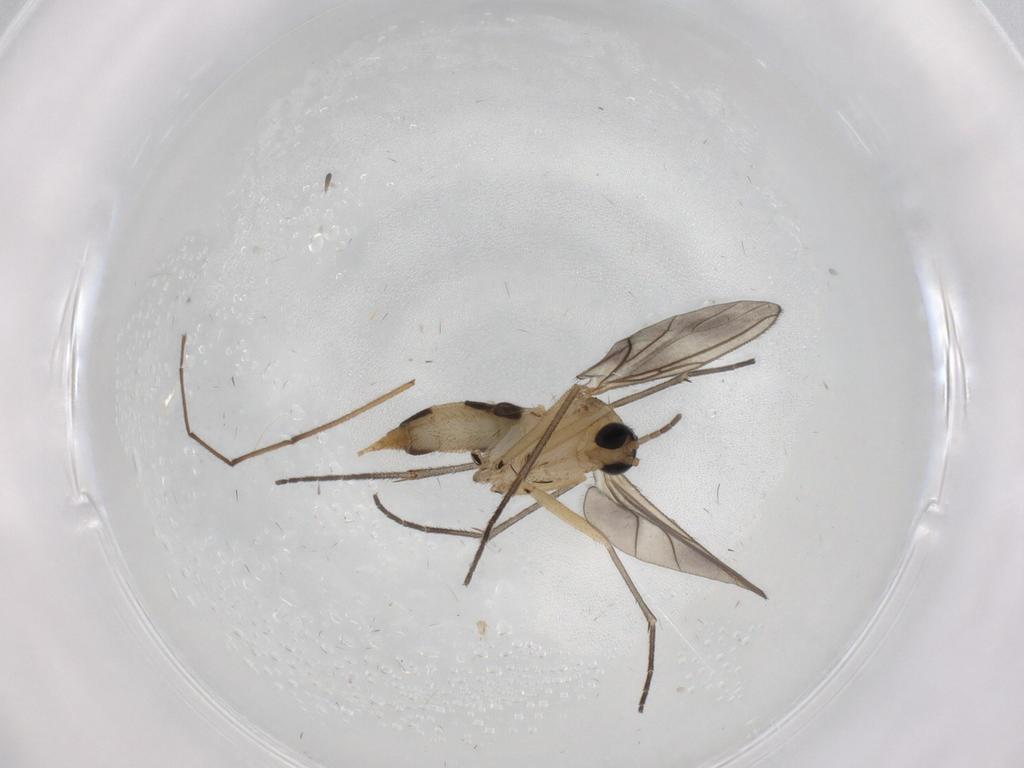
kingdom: Animalia
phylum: Arthropoda
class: Insecta
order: Diptera
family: Sciaridae
